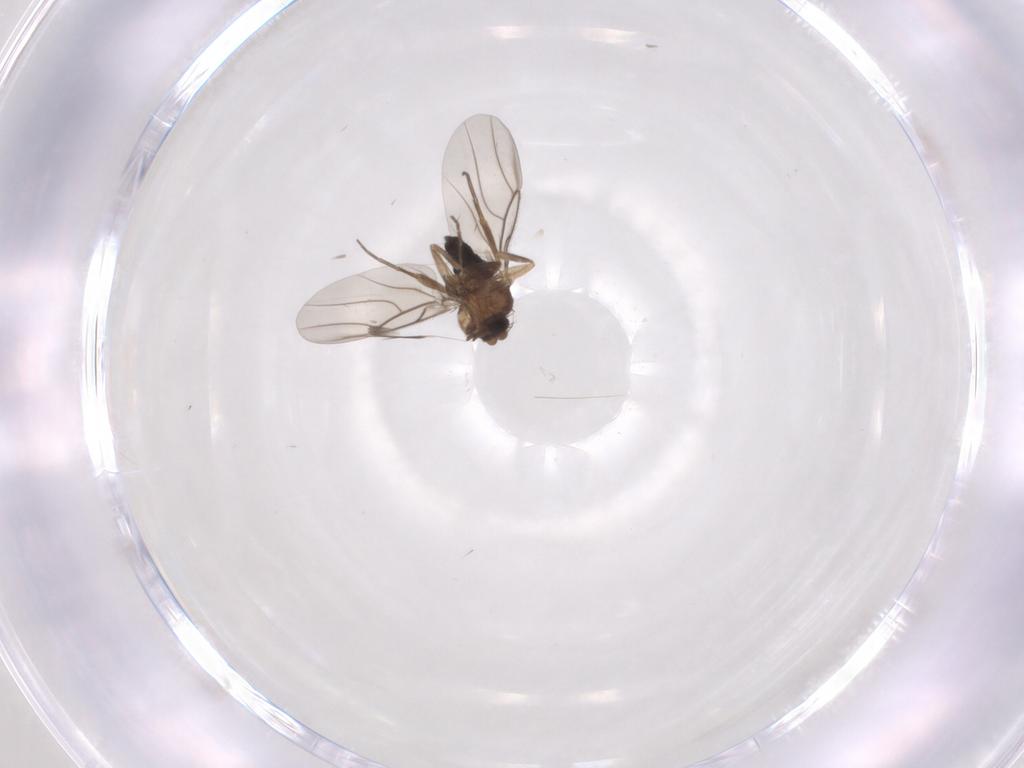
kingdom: Animalia
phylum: Arthropoda
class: Insecta
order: Diptera
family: Phoridae
